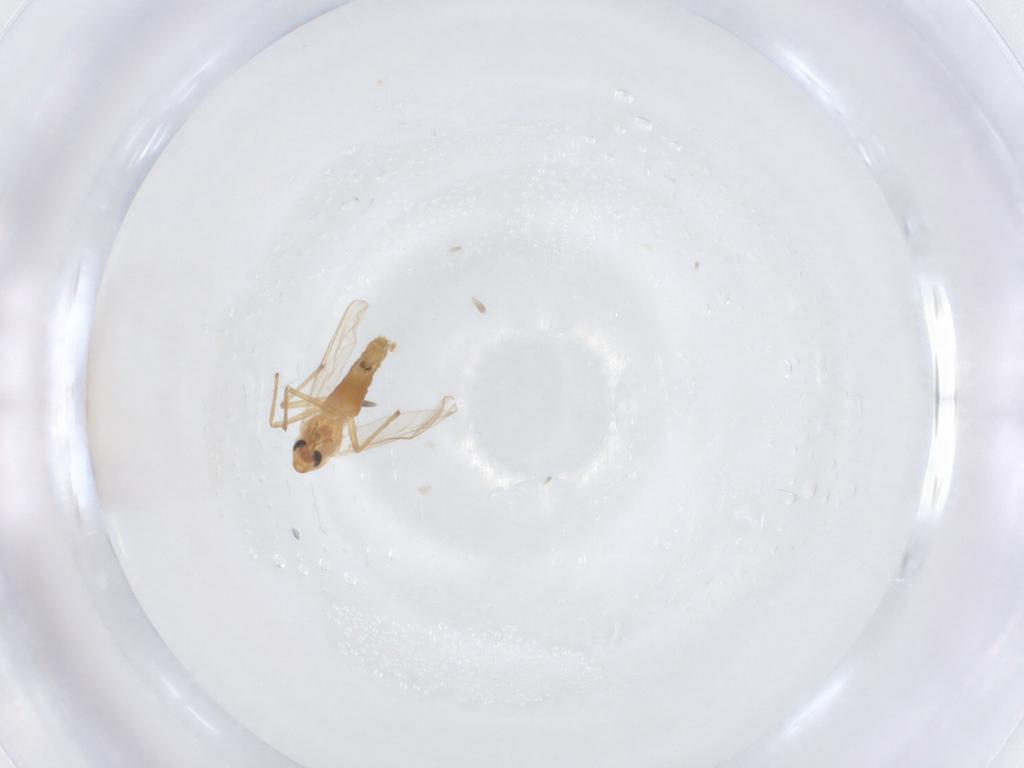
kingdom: Animalia
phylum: Arthropoda
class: Insecta
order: Diptera
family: Chironomidae
